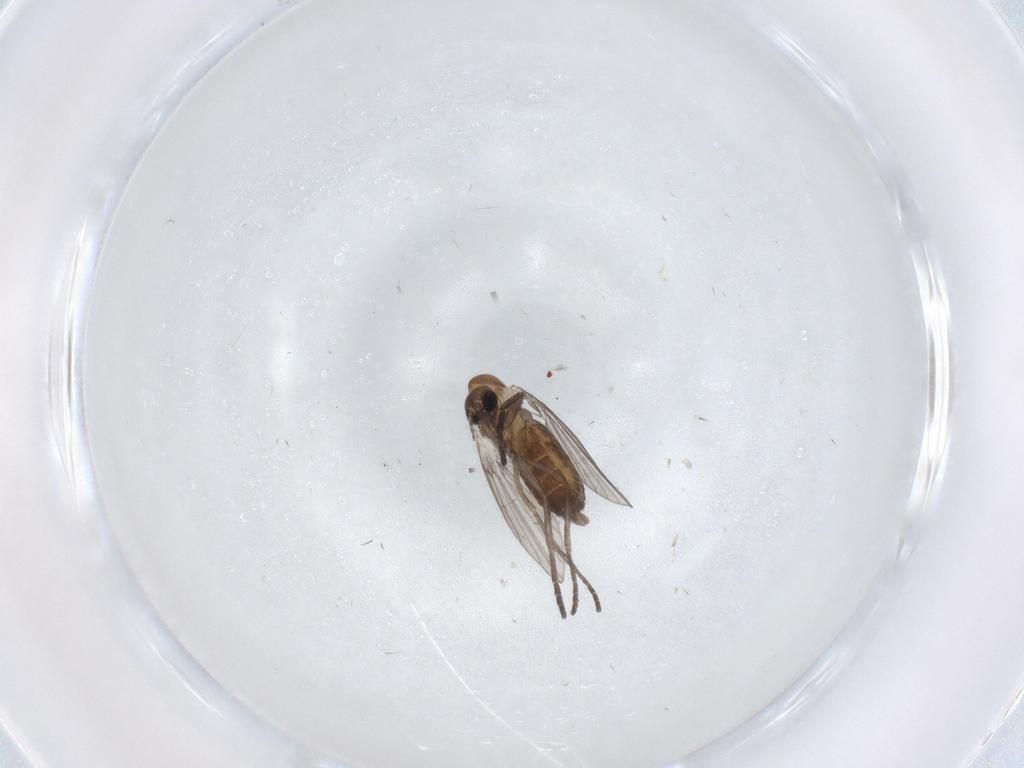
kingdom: Animalia
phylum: Arthropoda
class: Insecta
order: Diptera
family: Psychodidae
